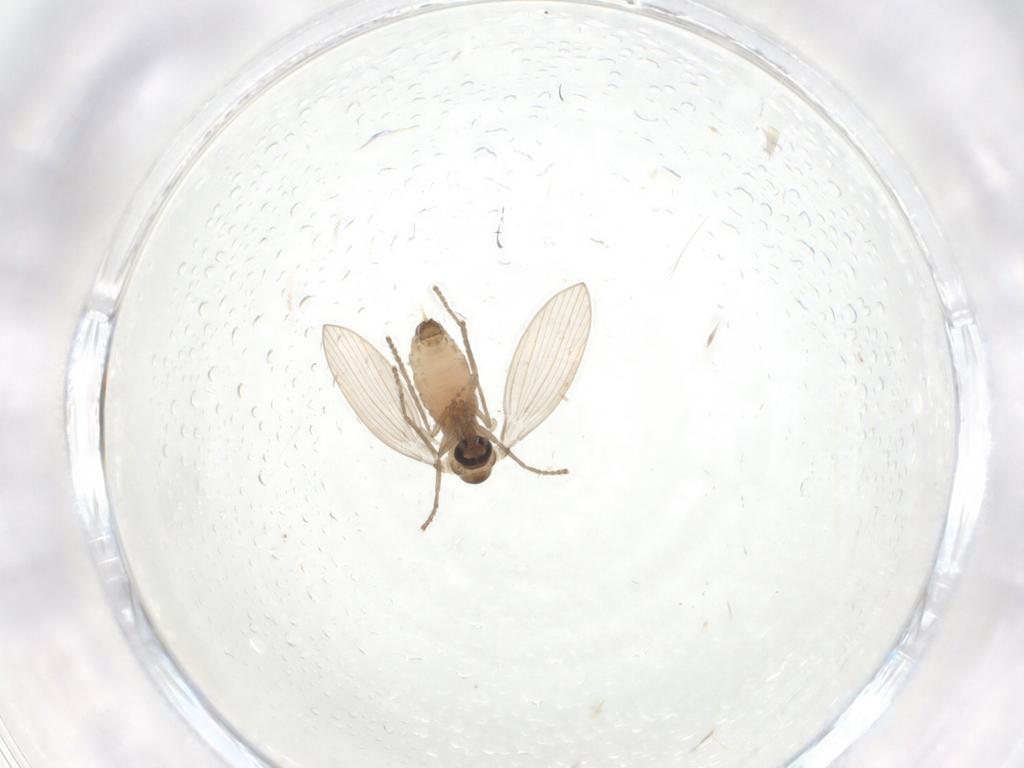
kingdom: Animalia
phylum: Arthropoda
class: Insecta
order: Diptera
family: Psychodidae
